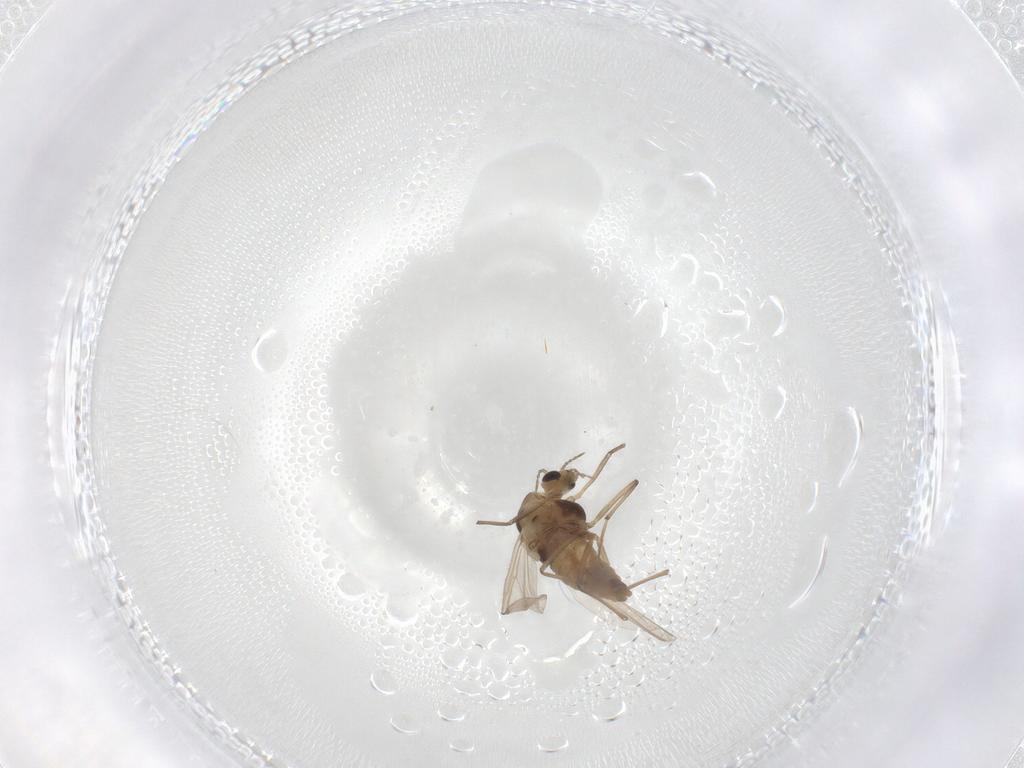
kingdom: Animalia
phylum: Arthropoda
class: Insecta
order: Diptera
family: Chironomidae
